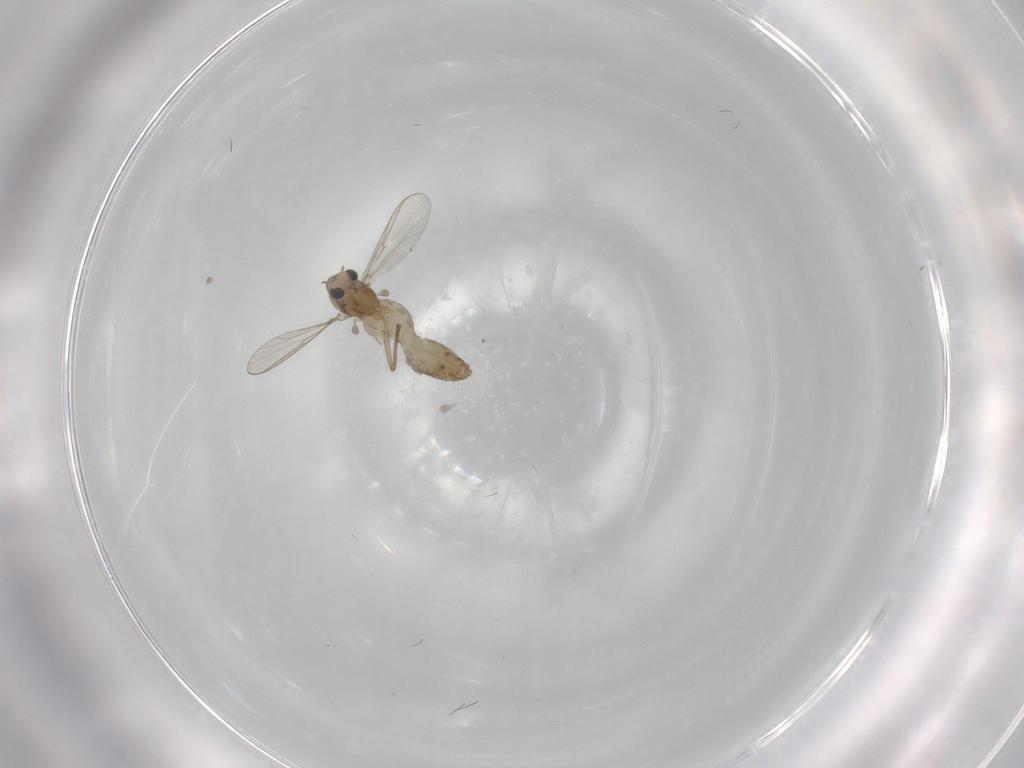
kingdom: Animalia
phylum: Arthropoda
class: Insecta
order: Diptera
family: Chironomidae
